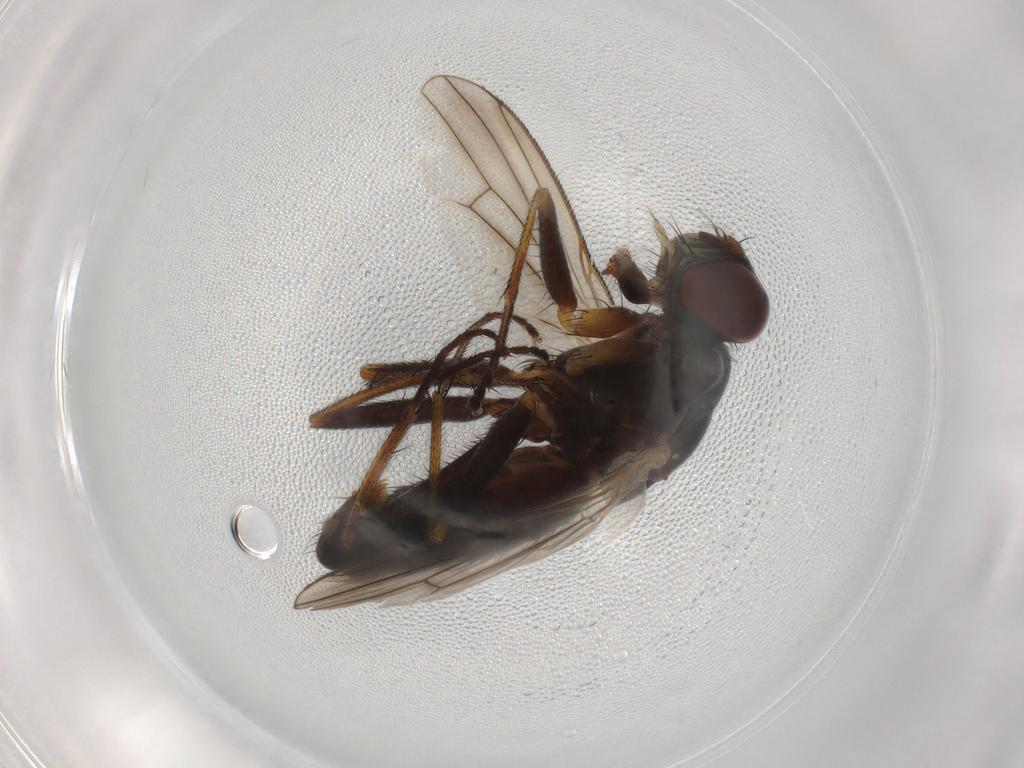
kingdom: Animalia
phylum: Arthropoda
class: Insecta
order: Diptera
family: Muscidae
